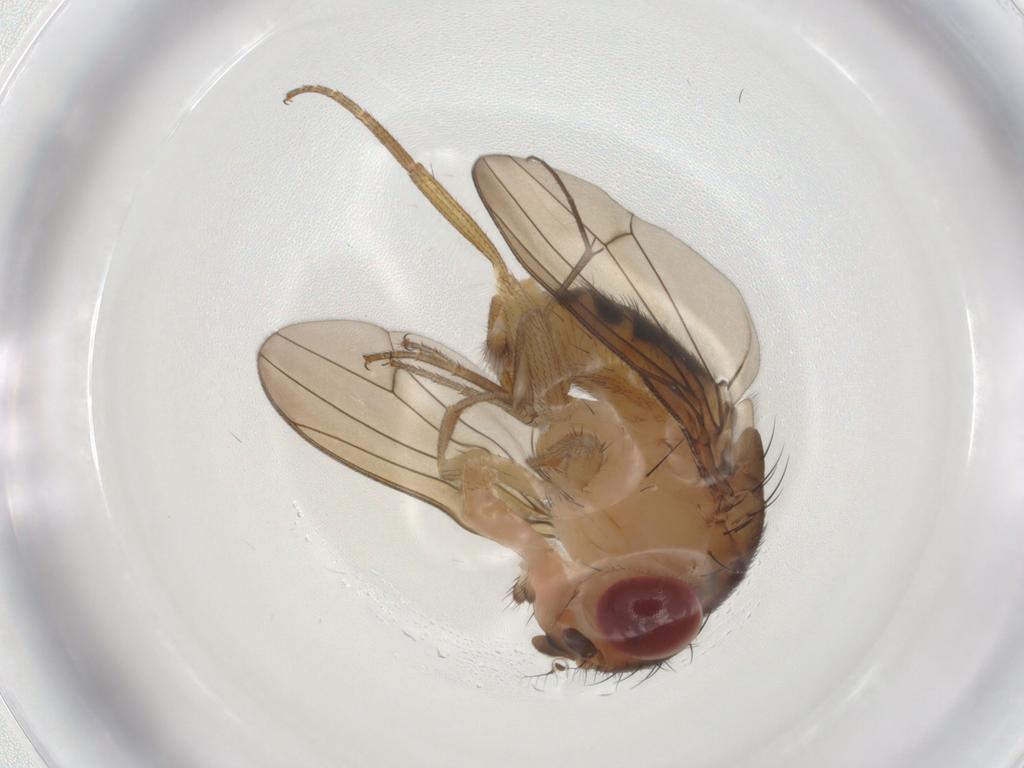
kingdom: Animalia
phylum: Arthropoda
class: Insecta
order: Diptera
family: Drosophilidae
